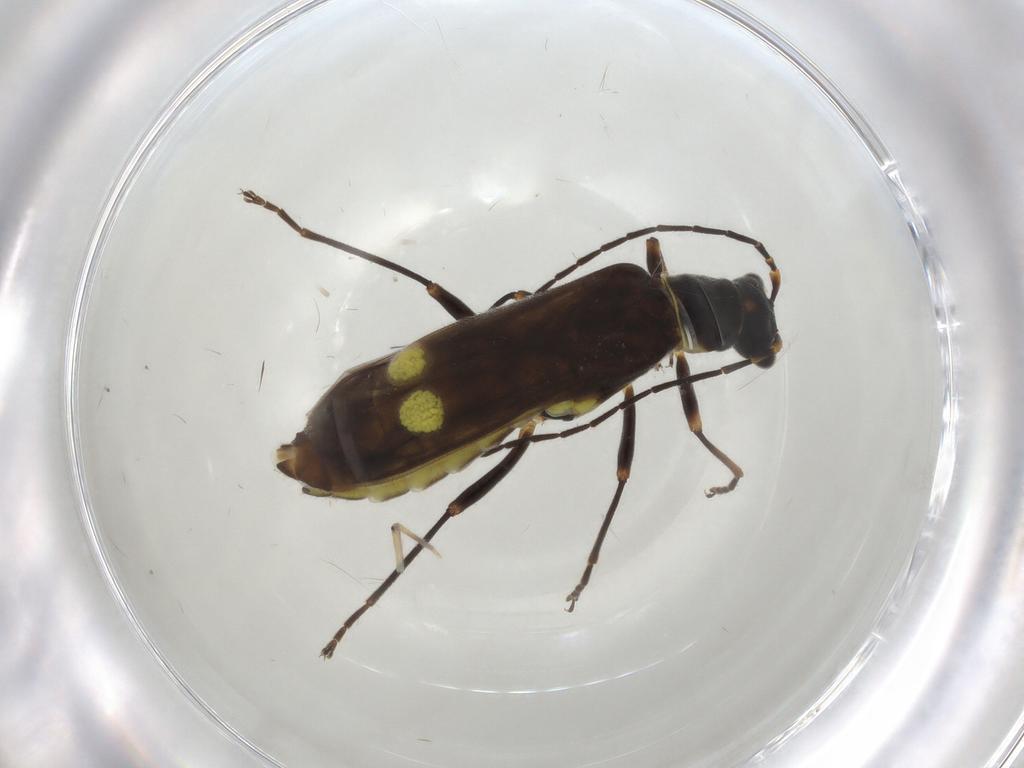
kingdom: Animalia
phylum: Arthropoda
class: Insecta
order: Coleoptera
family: Cantharidae
